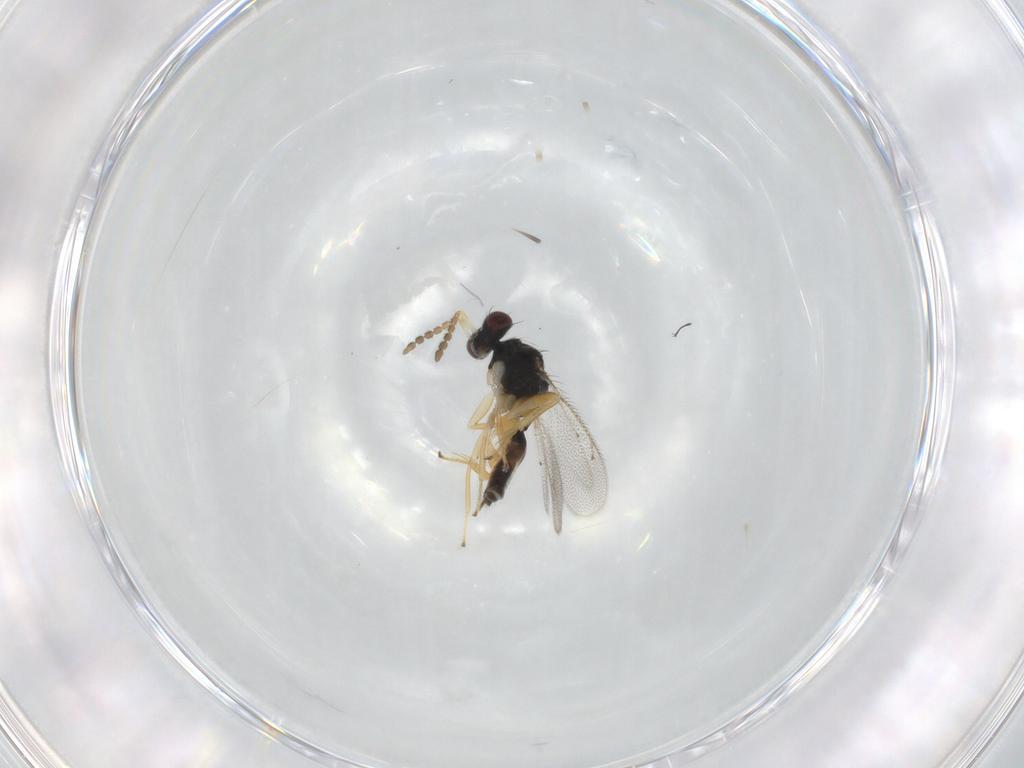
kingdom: Animalia
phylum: Arthropoda
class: Insecta
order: Hymenoptera
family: Eulophidae
